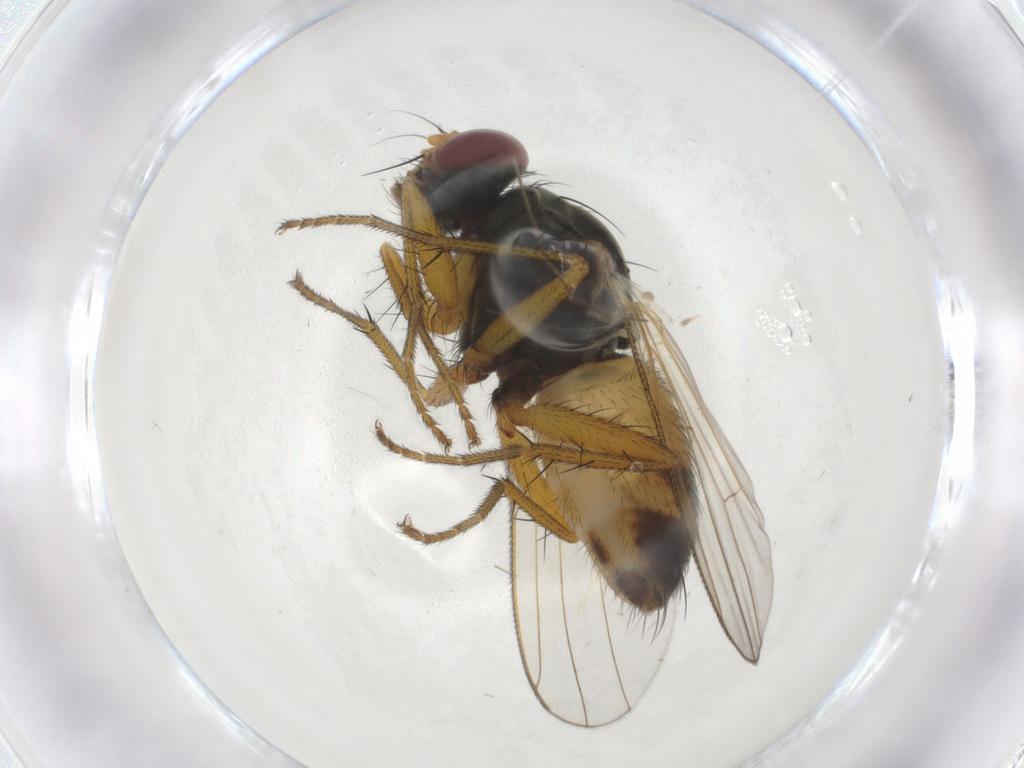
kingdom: Animalia
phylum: Arthropoda
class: Insecta
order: Diptera
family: Muscidae
